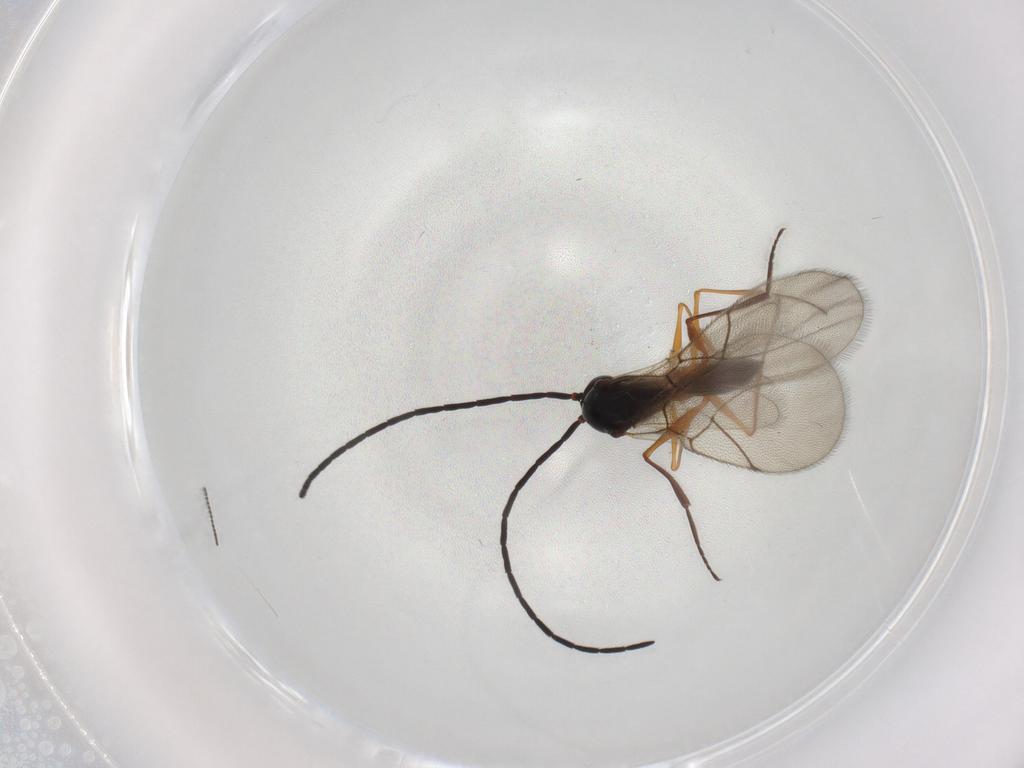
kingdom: Animalia
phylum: Arthropoda
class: Insecta
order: Hymenoptera
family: Figitidae
